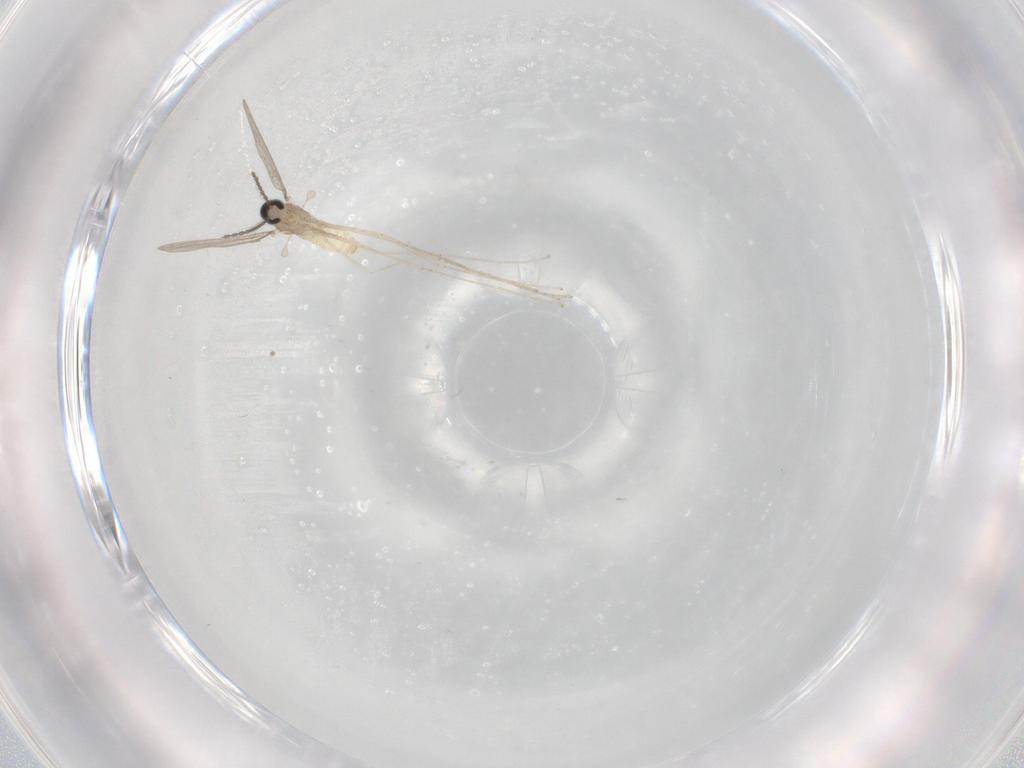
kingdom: Animalia
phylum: Arthropoda
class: Insecta
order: Diptera
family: Cecidomyiidae
